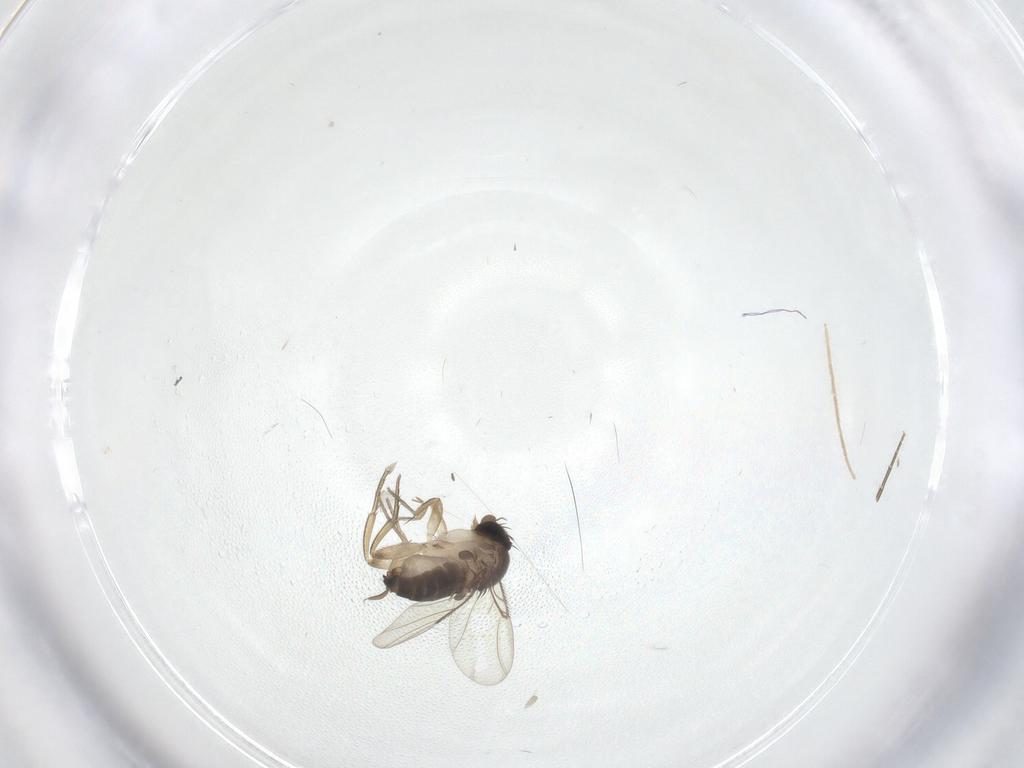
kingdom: Animalia
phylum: Arthropoda
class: Insecta
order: Diptera
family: Chironomidae
